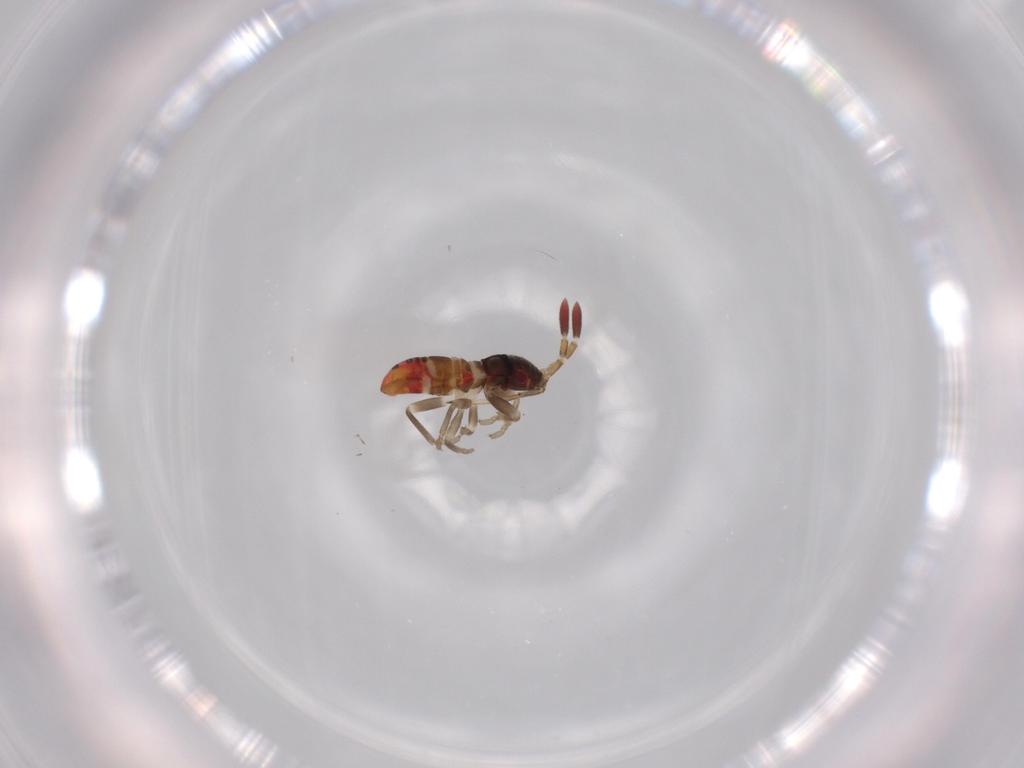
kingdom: Animalia
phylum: Arthropoda
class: Insecta
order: Hemiptera
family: Rhyparochromidae
